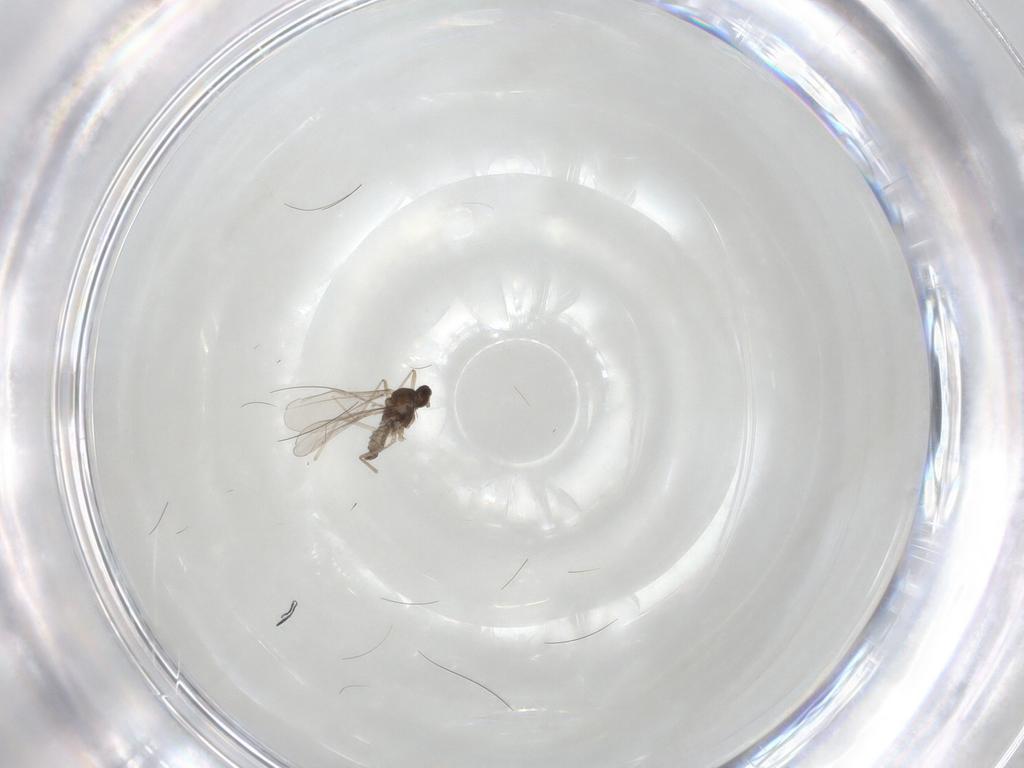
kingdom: Animalia
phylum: Arthropoda
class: Insecta
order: Diptera
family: Cecidomyiidae
